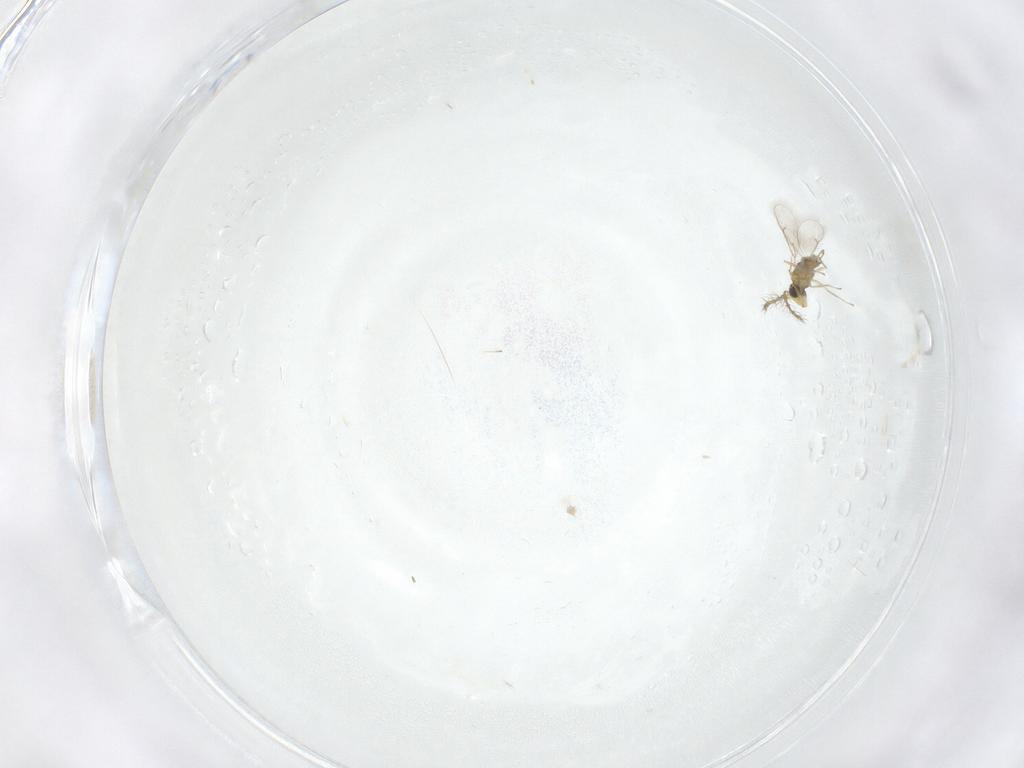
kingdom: Animalia
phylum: Arthropoda
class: Insecta
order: Hymenoptera
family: Eulophidae
